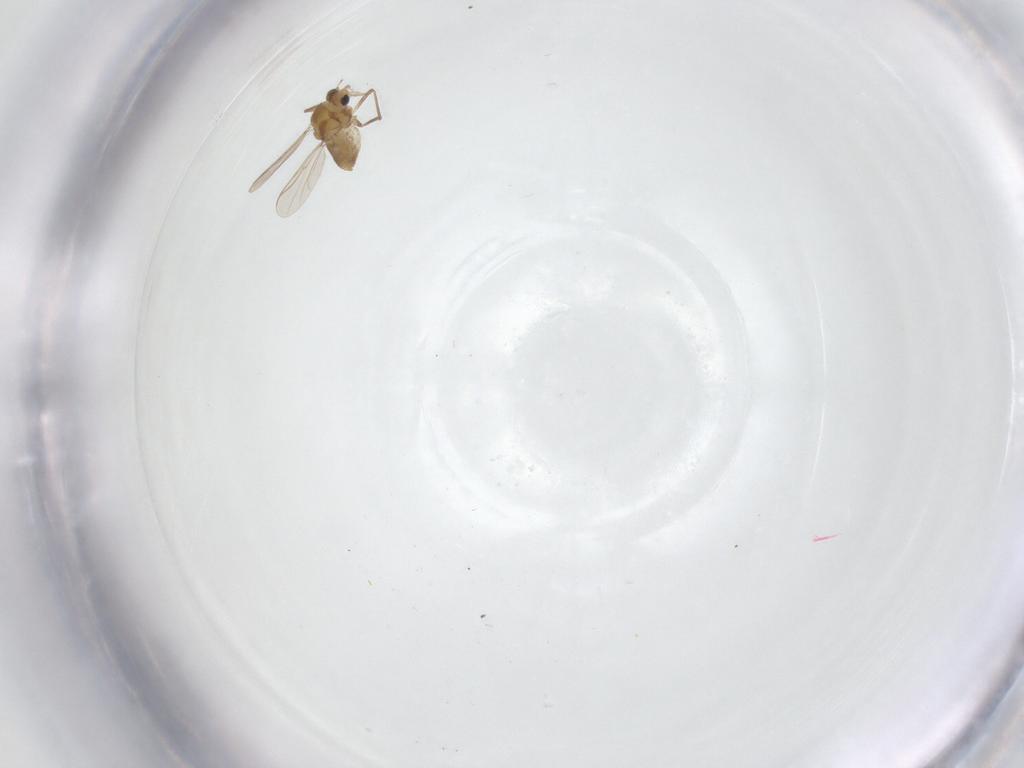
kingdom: Animalia
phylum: Arthropoda
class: Insecta
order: Diptera
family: Chironomidae
